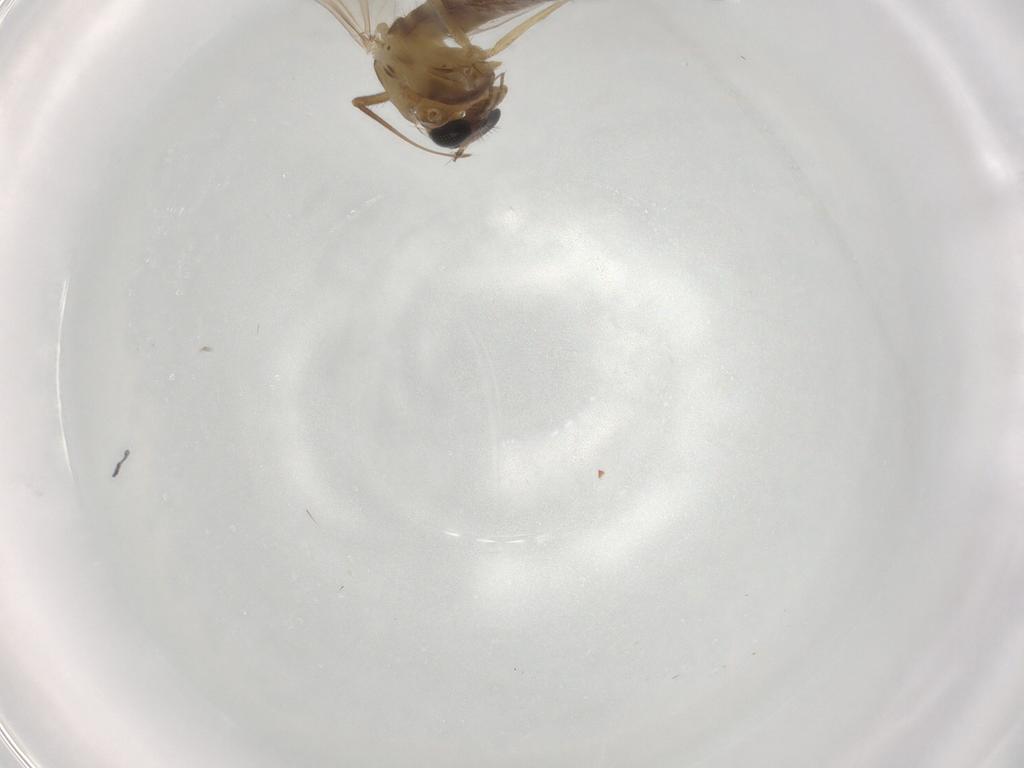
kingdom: Animalia
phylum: Arthropoda
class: Insecta
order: Diptera
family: Chironomidae
